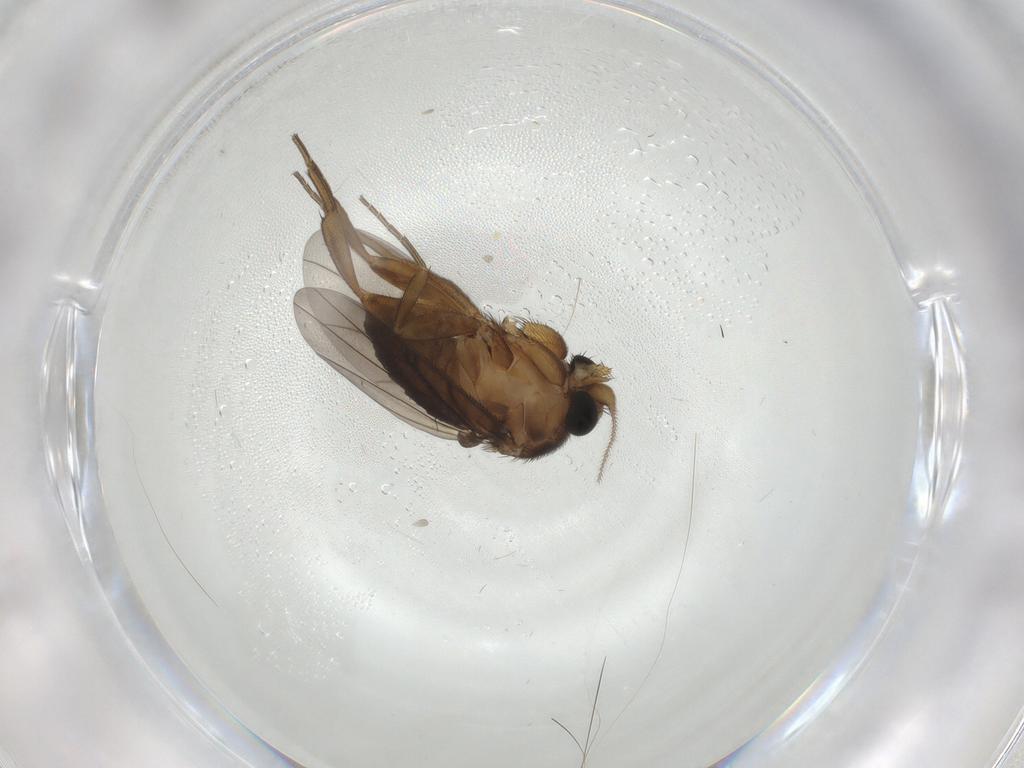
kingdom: Animalia
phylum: Arthropoda
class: Insecta
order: Diptera
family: Phoridae
